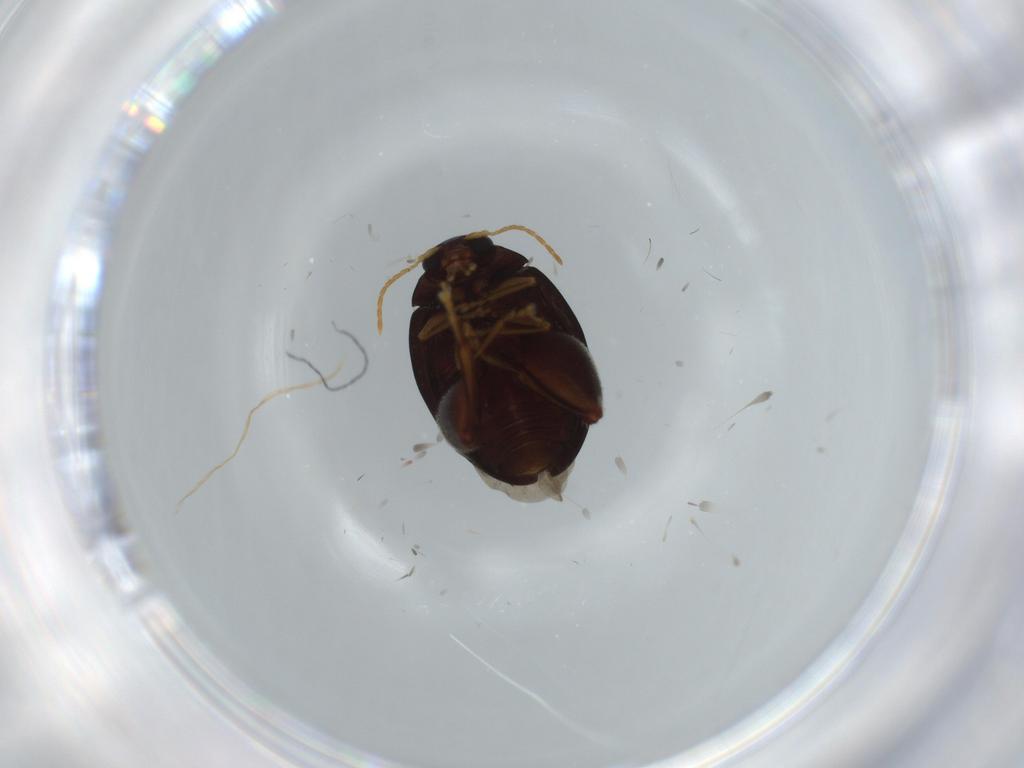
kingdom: Animalia
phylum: Arthropoda
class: Insecta
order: Coleoptera
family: Chrysomelidae
